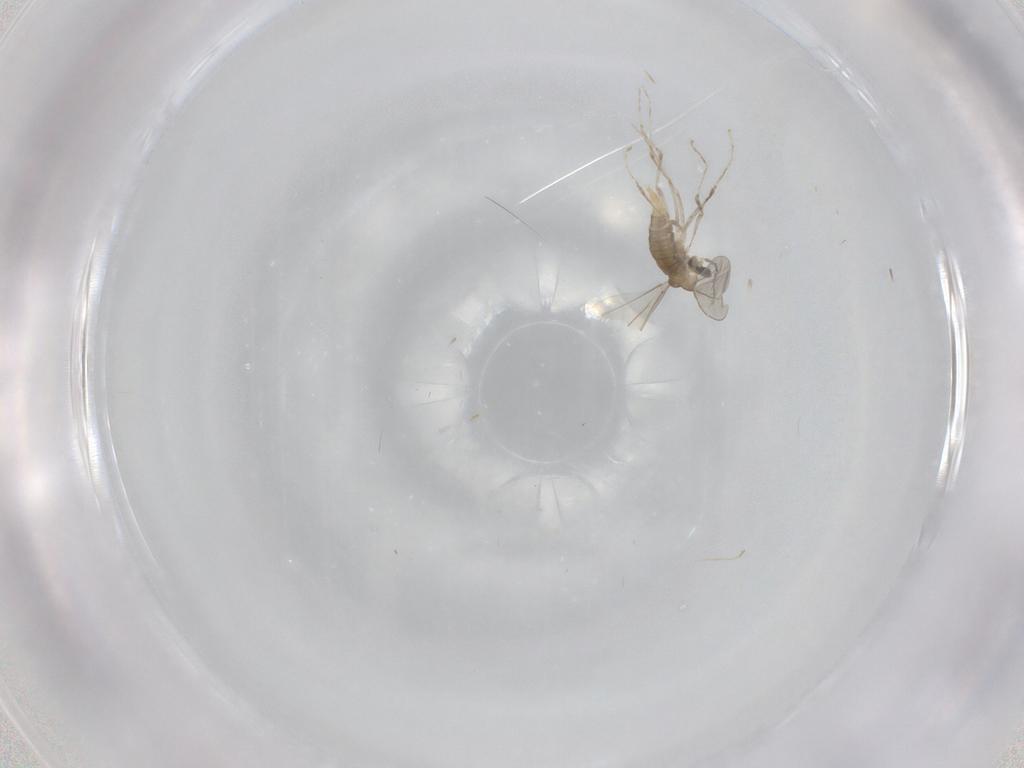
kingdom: Animalia
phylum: Arthropoda
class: Insecta
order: Diptera
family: Cecidomyiidae
